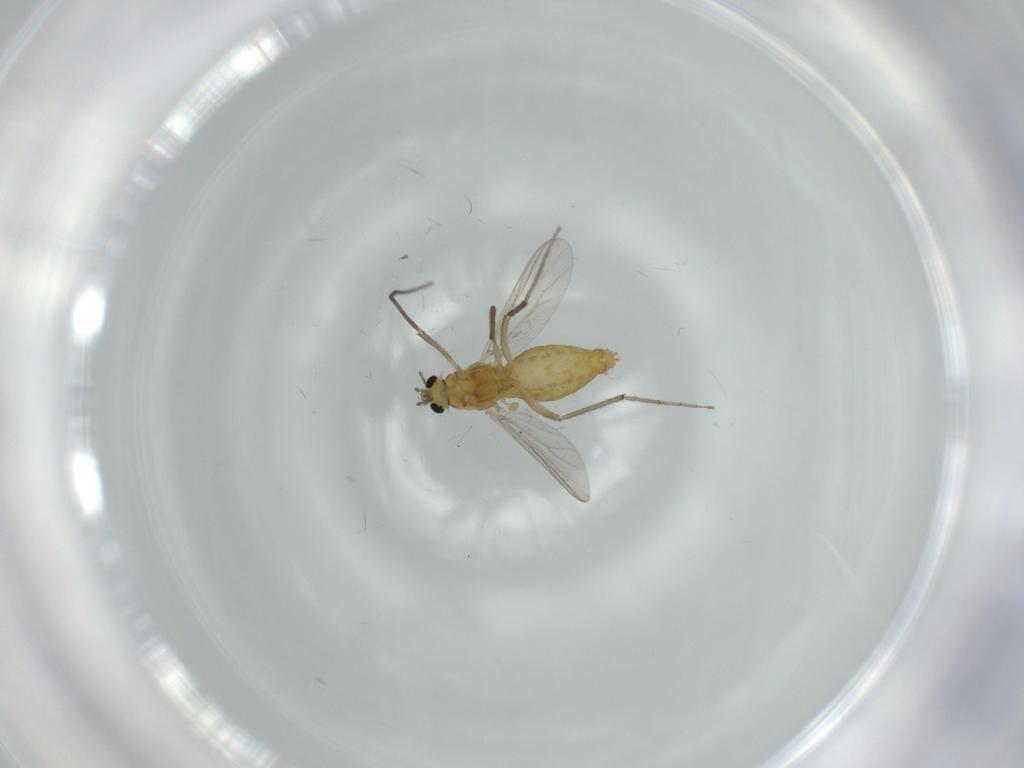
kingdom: Animalia
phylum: Arthropoda
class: Insecta
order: Diptera
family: Chironomidae
